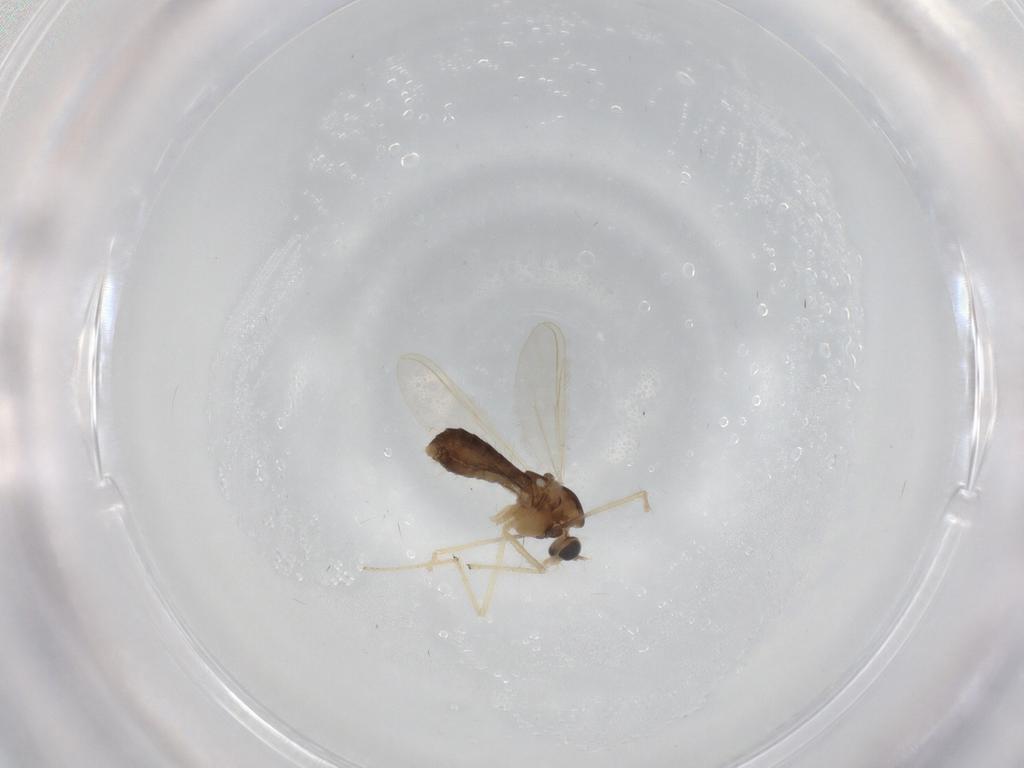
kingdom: Animalia
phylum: Arthropoda
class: Insecta
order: Diptera
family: Chironomidae
